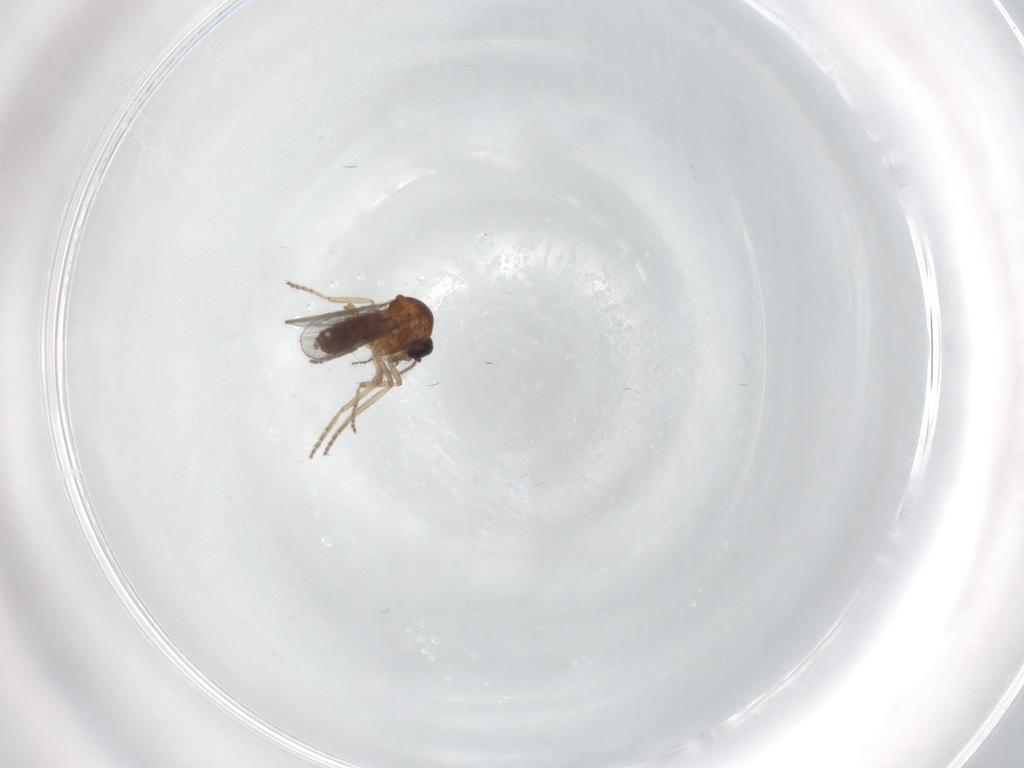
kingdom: Animalia
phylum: Arthropoda
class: Insecta
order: Diptera
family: Ceratopogonidae
